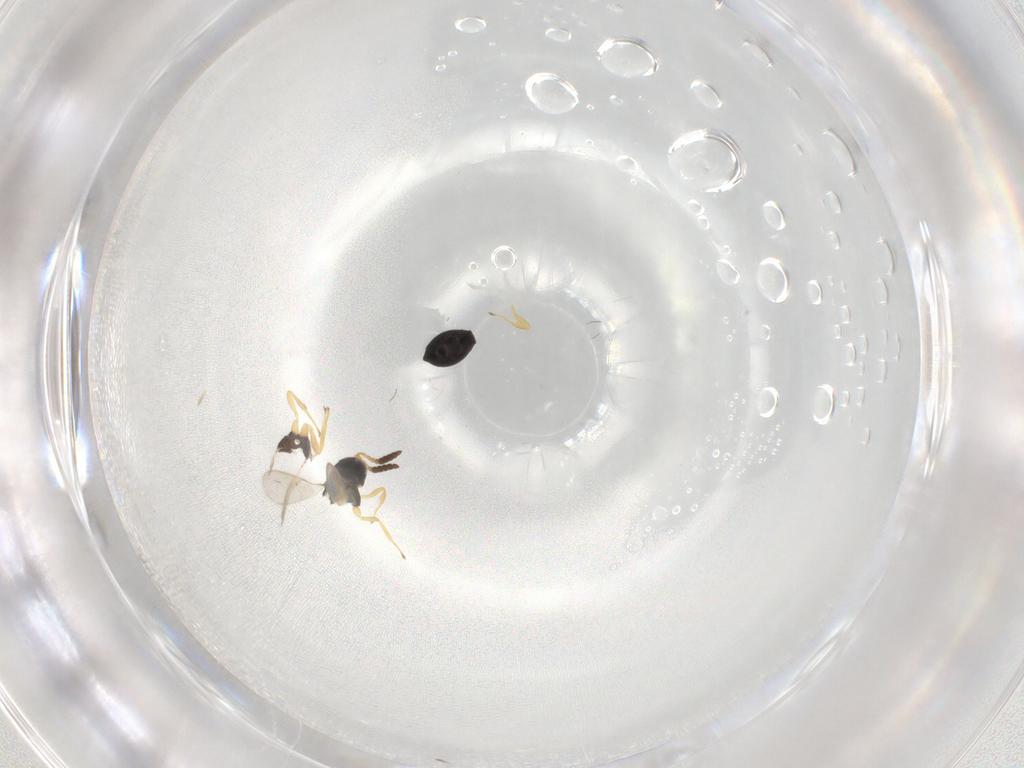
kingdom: Animalia
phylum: Arthropoda
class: Insecta
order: Hymenoptera
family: Scelionidae
